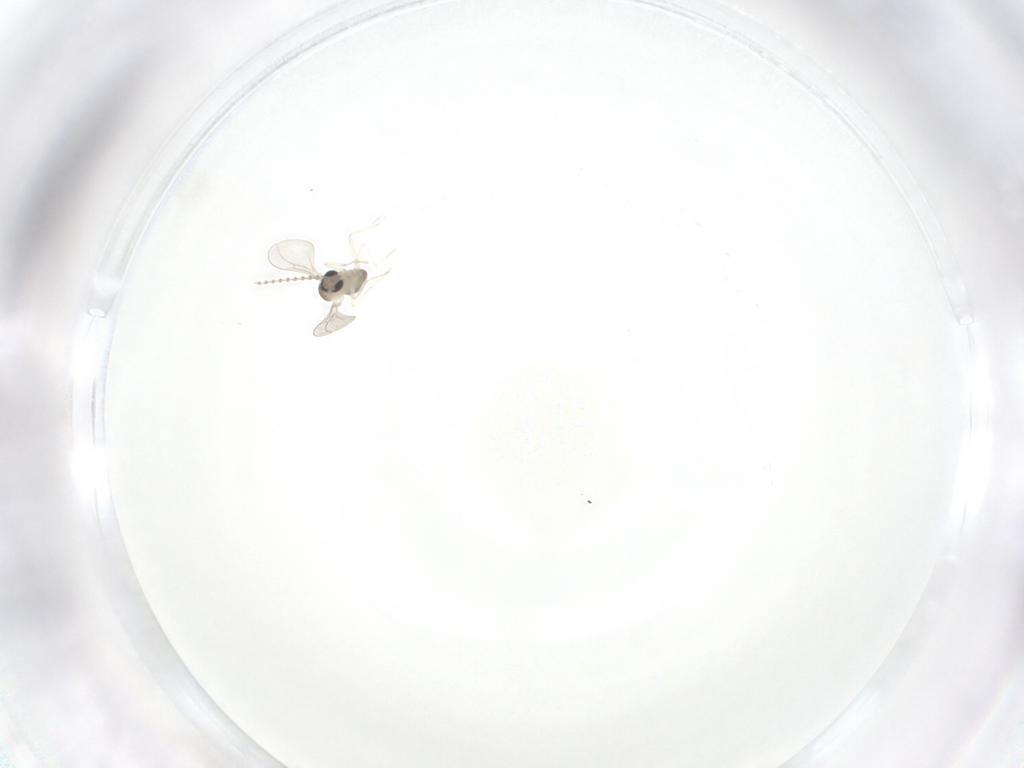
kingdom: Animalia
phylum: Arthropoda
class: Insecta
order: Diptera
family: Cecidomyiidae
